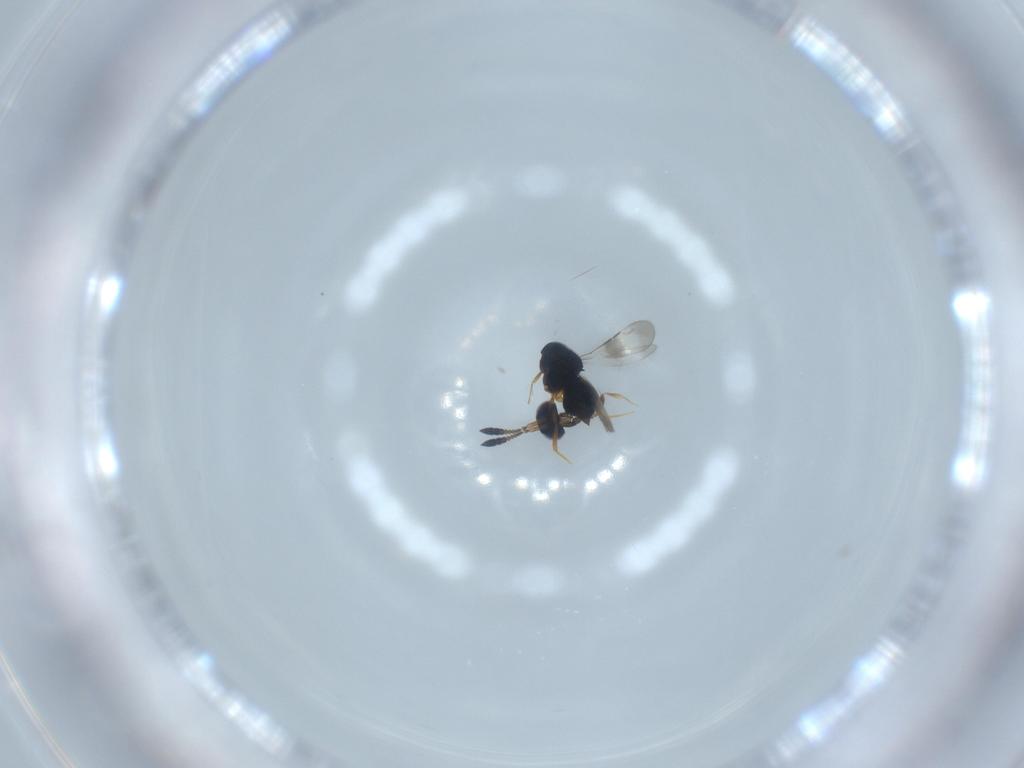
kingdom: Animalia
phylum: Arthropoda
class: Insecta
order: Hymenoptera
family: Ceraphronidae
